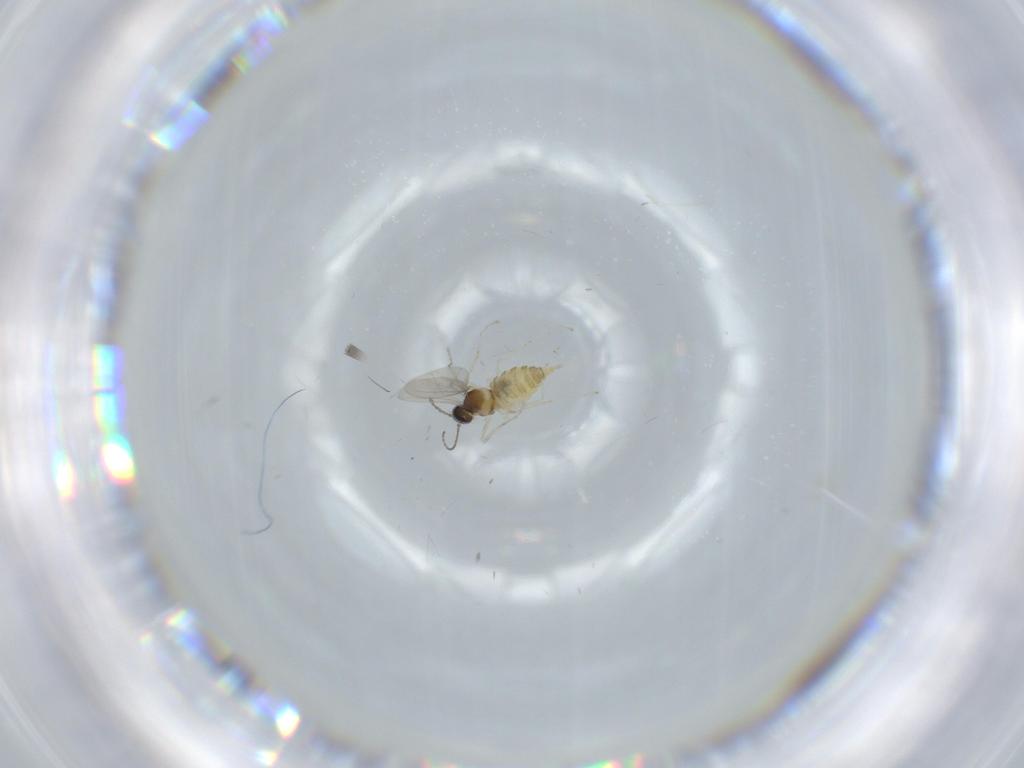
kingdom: Animalia
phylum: Arthropoda
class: Insecta
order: Diptera
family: Cecidomyiidae
